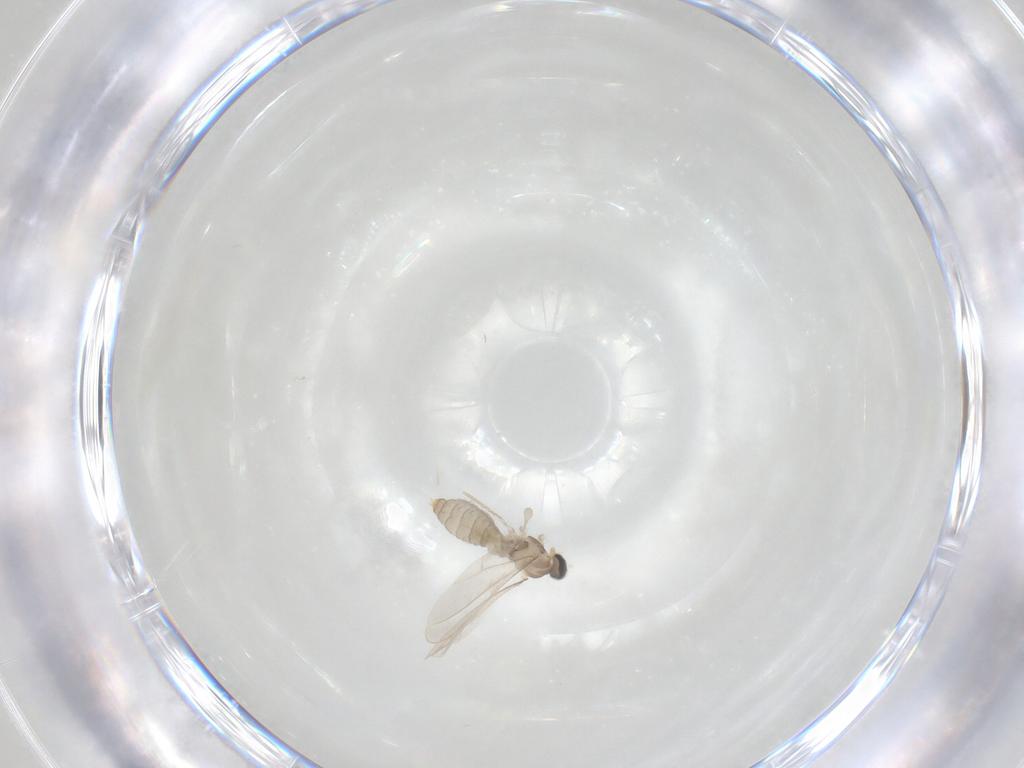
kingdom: Animalia
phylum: Arthropoda
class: Insecta
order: Diptera
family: Cecidomyiidae
